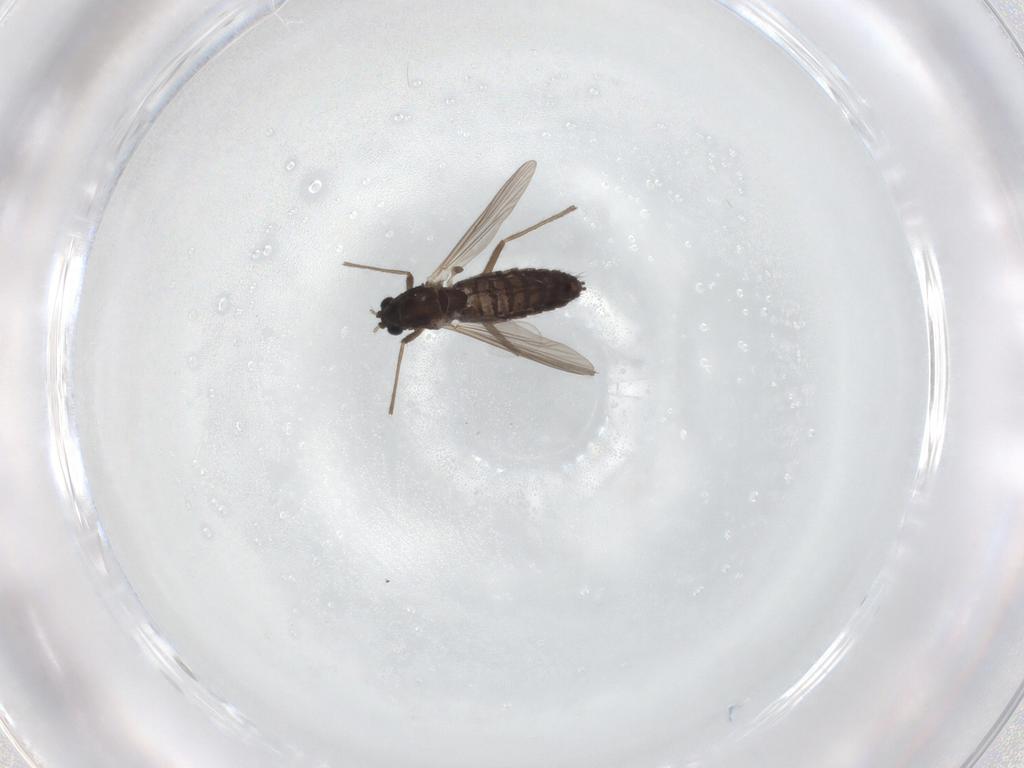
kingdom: Animalia
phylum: Arthropoda
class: Insecta
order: Diptera
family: Chironomidae
